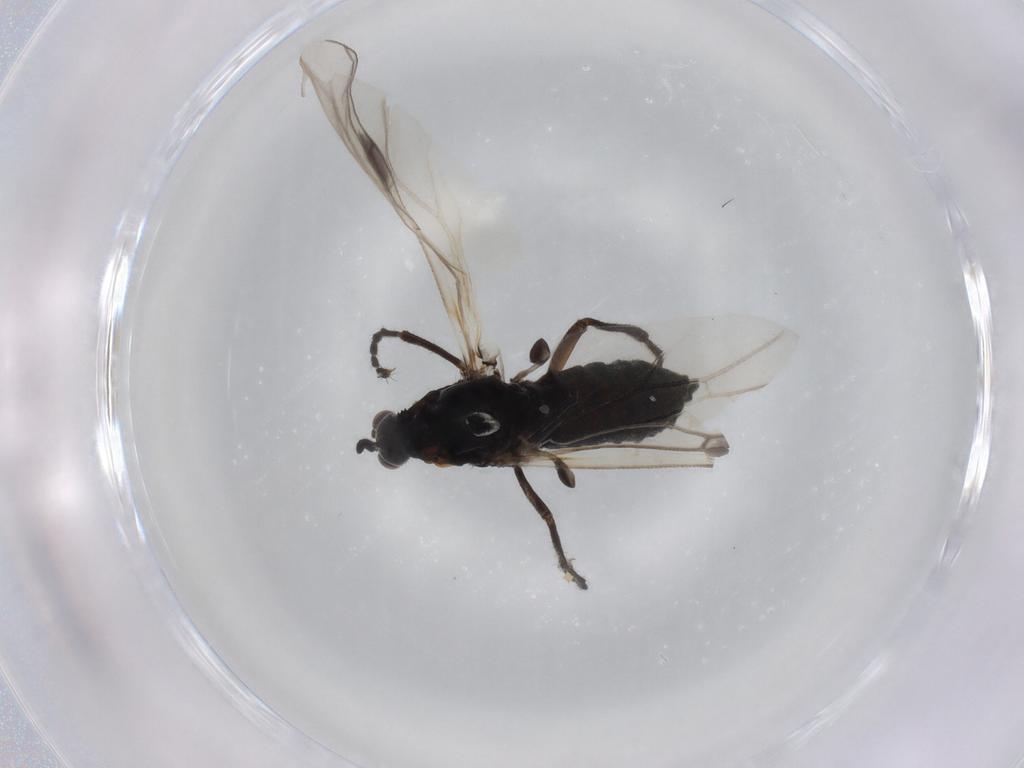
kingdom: Animalia
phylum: Arthropoda
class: Insecta
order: Diptera
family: Bibionidae
